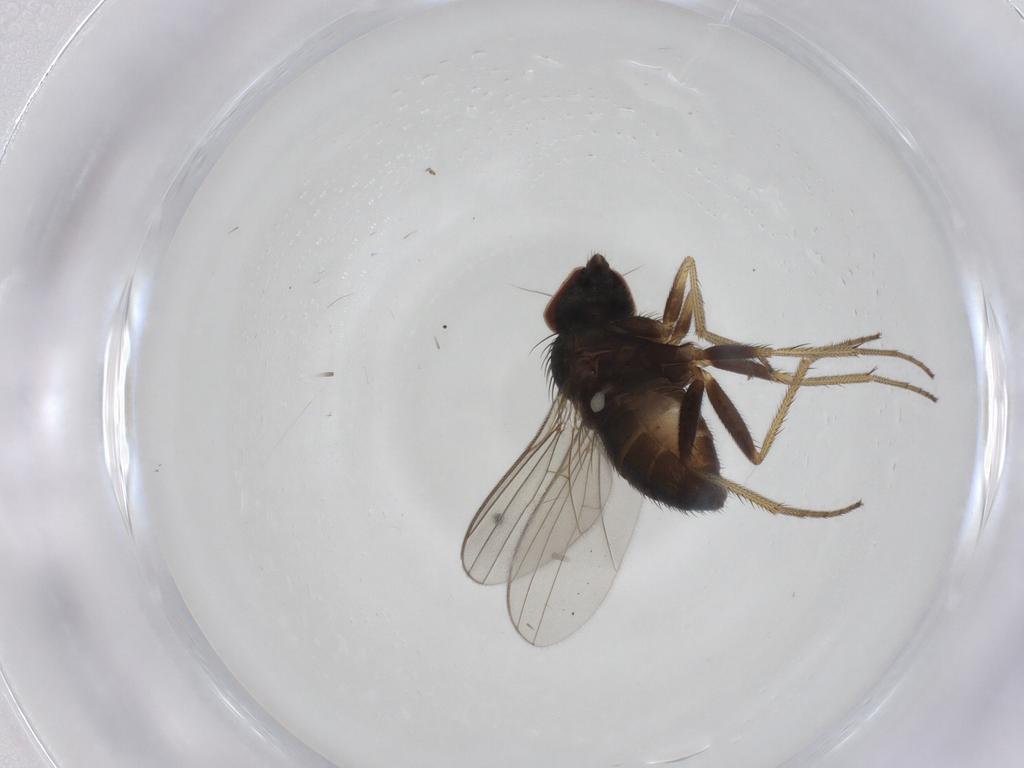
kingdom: Animalia
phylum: Arthropoda
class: Insecta
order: Diptera
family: Dolichopodidae
